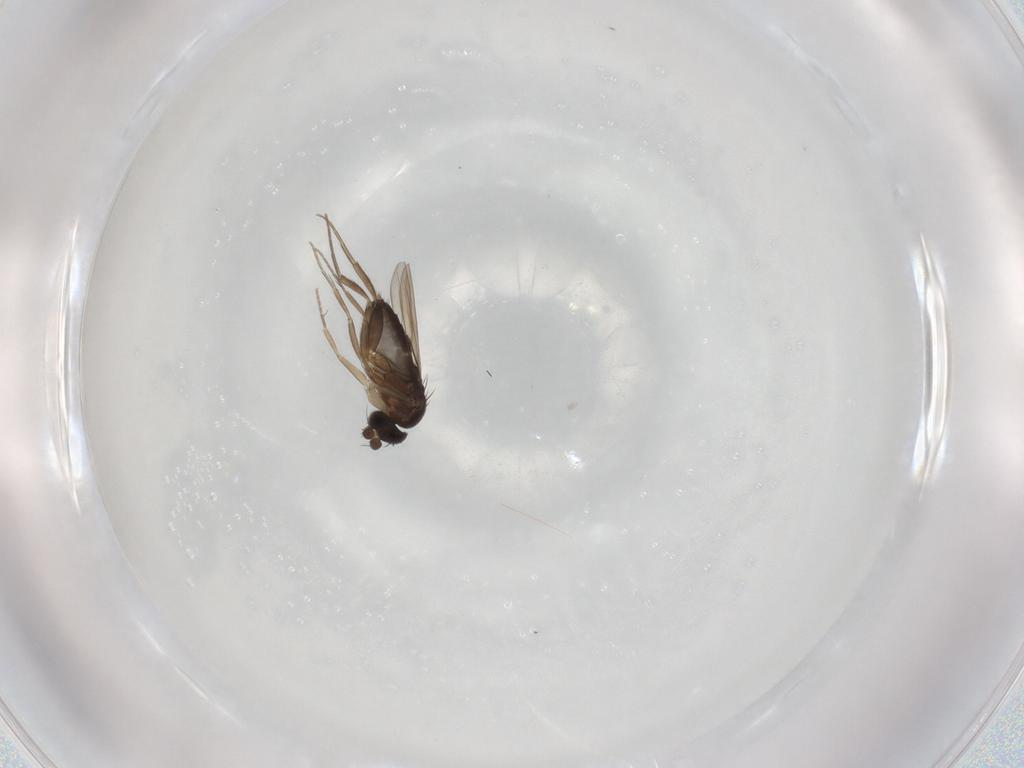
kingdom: Animalia
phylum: Arthropoda
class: Insecta
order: Diptera
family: Phoridae
